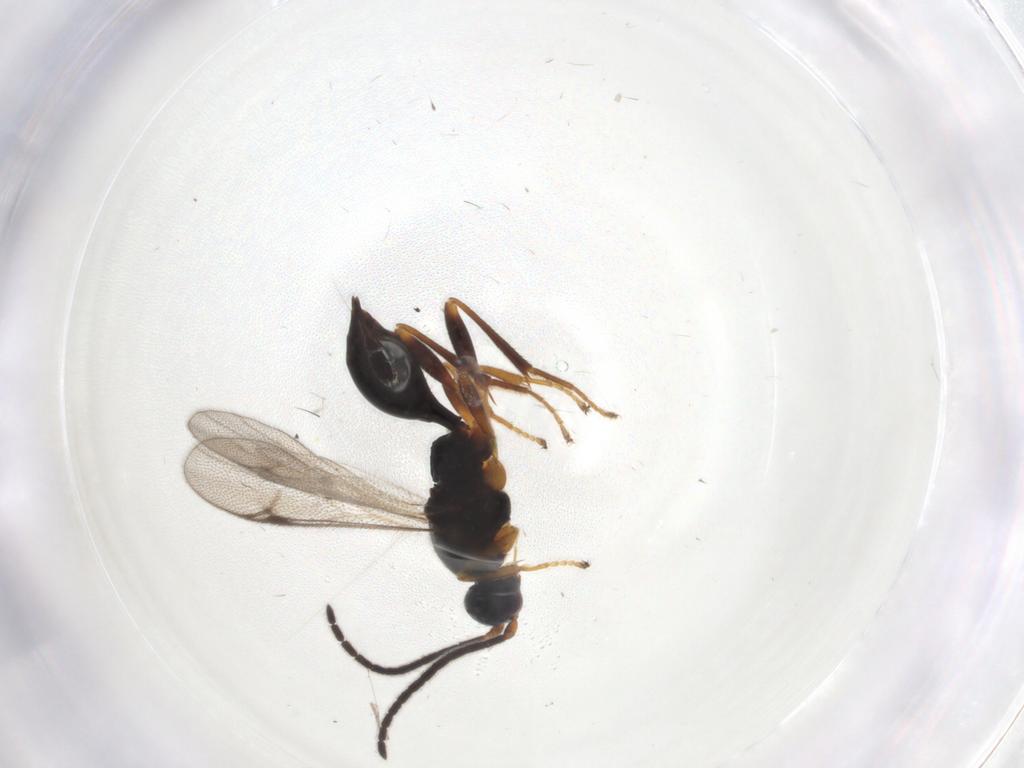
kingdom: Animalia
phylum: Arthropoda
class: Insecta
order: Hymenoptera
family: Proctotrupidae
